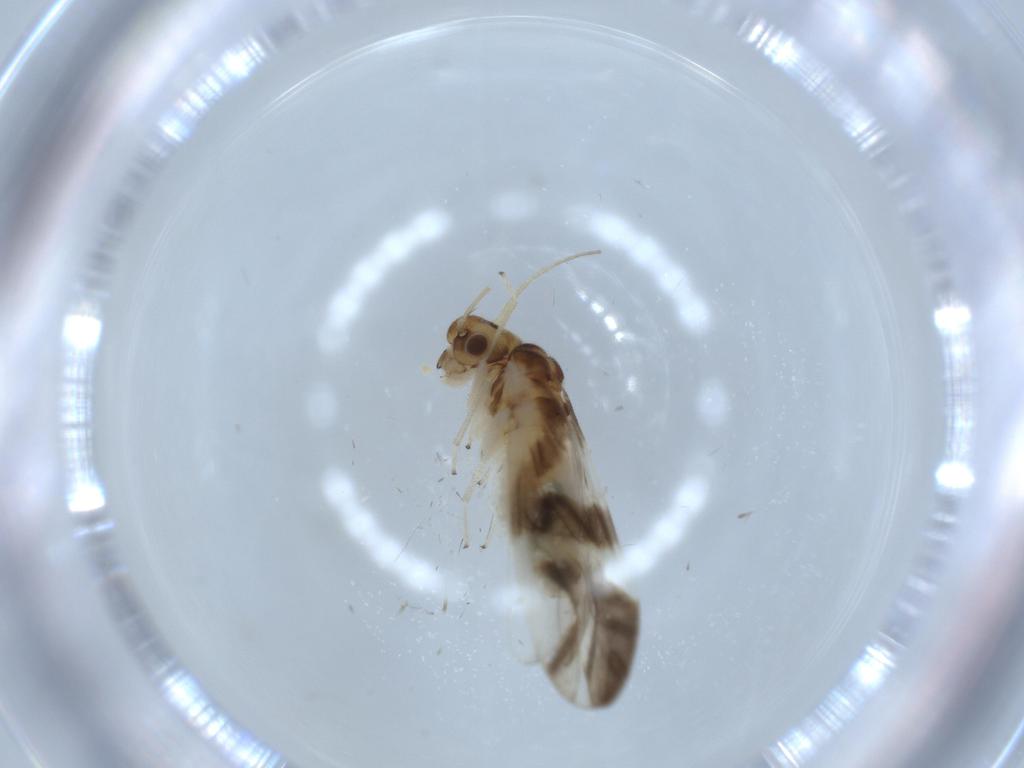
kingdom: Animalia
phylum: Arthropoda
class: Insecta
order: Psocodea
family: Caeciliusidae
